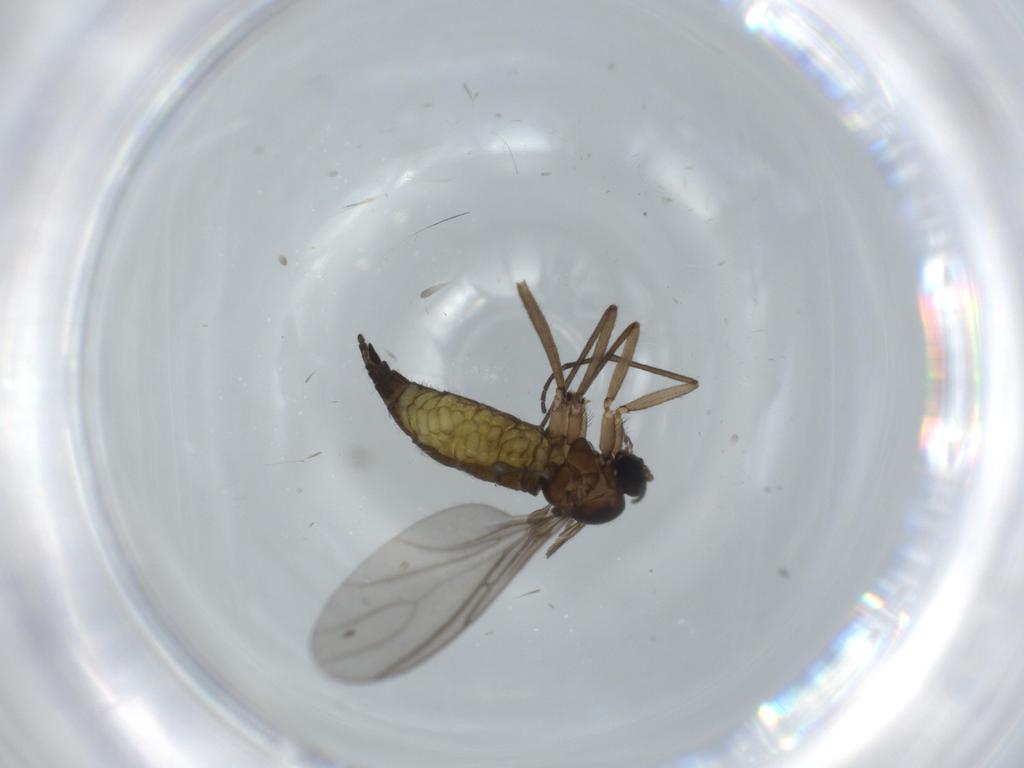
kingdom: Animalia
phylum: Arthropoda
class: Insecta
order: Diptera
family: Sciaridae
